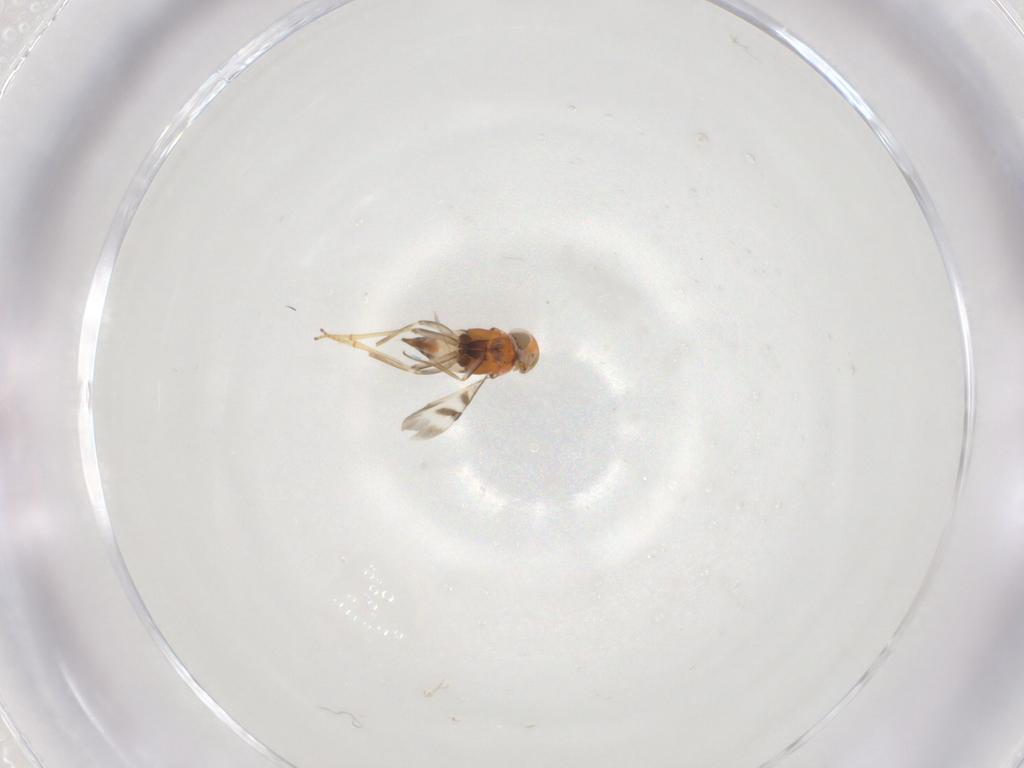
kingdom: Animalia
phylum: Arthropoda
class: Insecta
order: Hymenoptera
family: Encyrtidae
